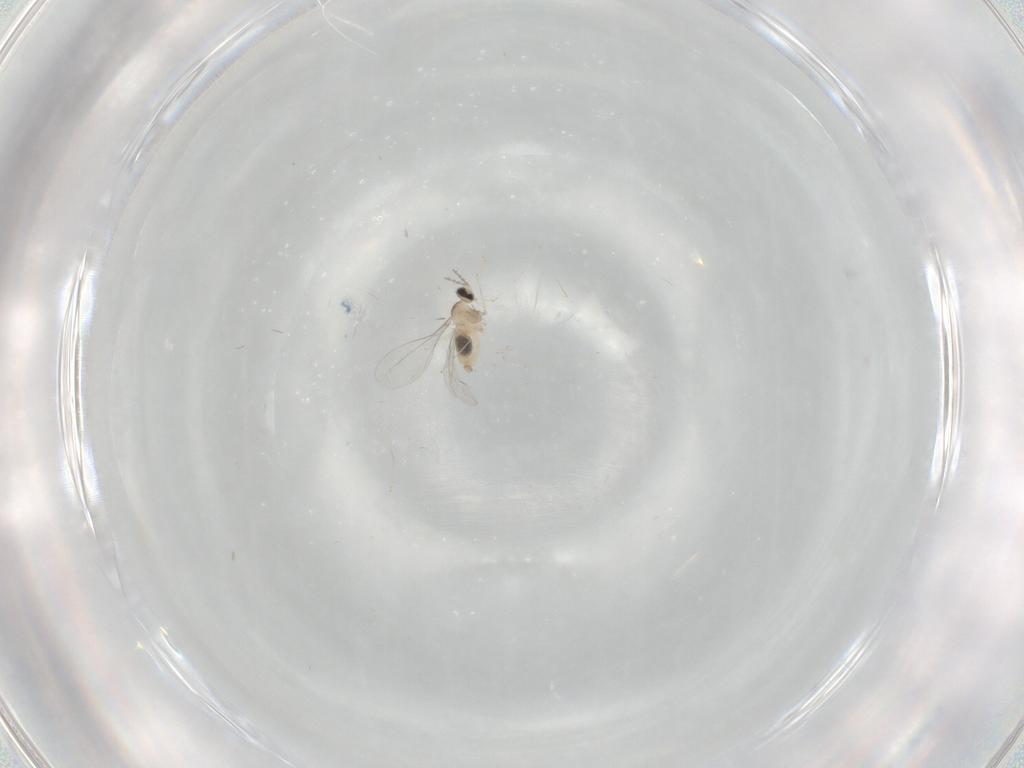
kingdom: Animalia
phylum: Arthropoda
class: Insecta
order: Diptera
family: Cecidomyiidae
